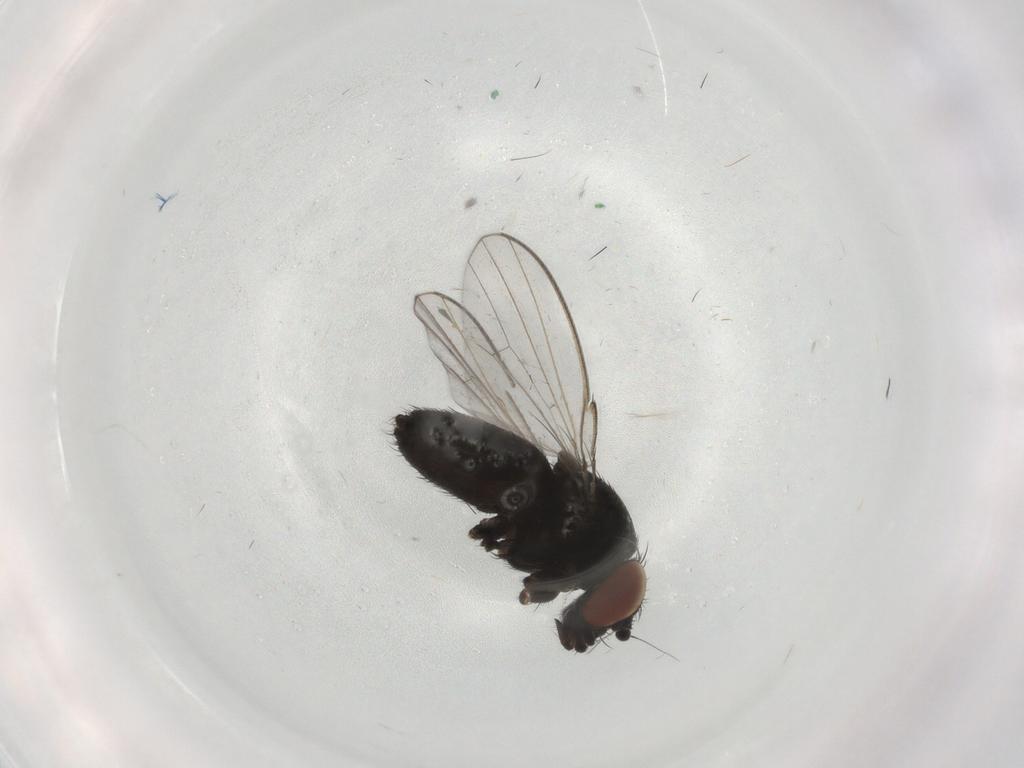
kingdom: Animalia
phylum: Arthropoda
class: Insecta
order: Diptera
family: Milichiidae
